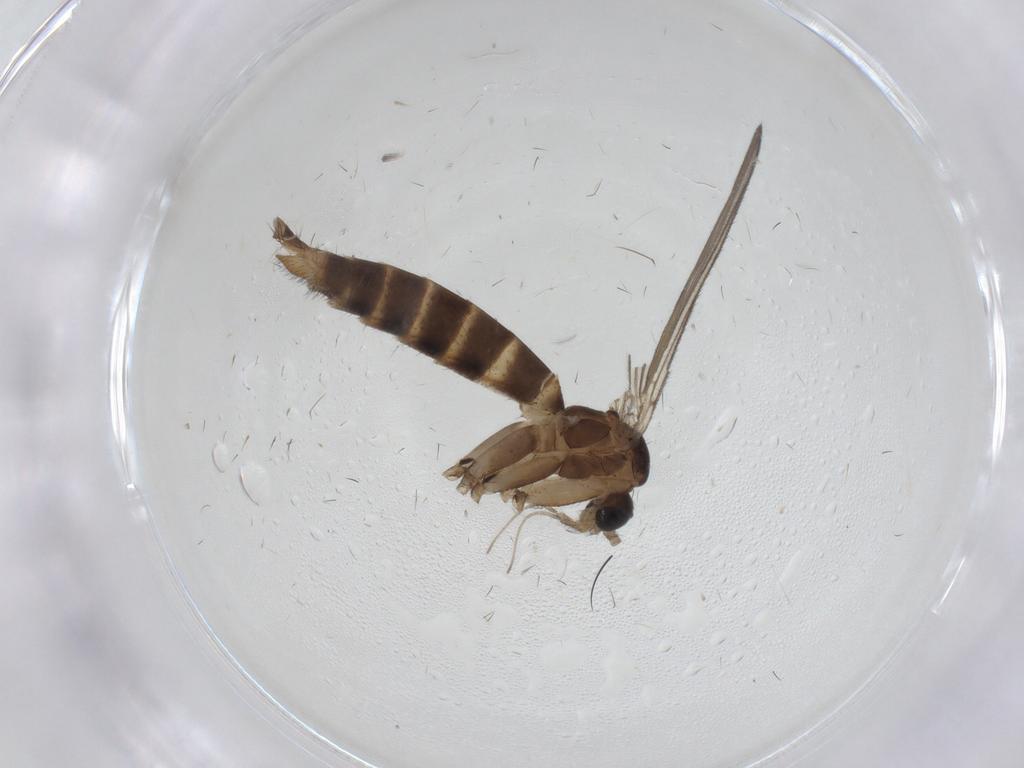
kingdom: Animalia
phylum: Arthropoda
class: Insecta
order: Diptera
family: Mycetophilidae
